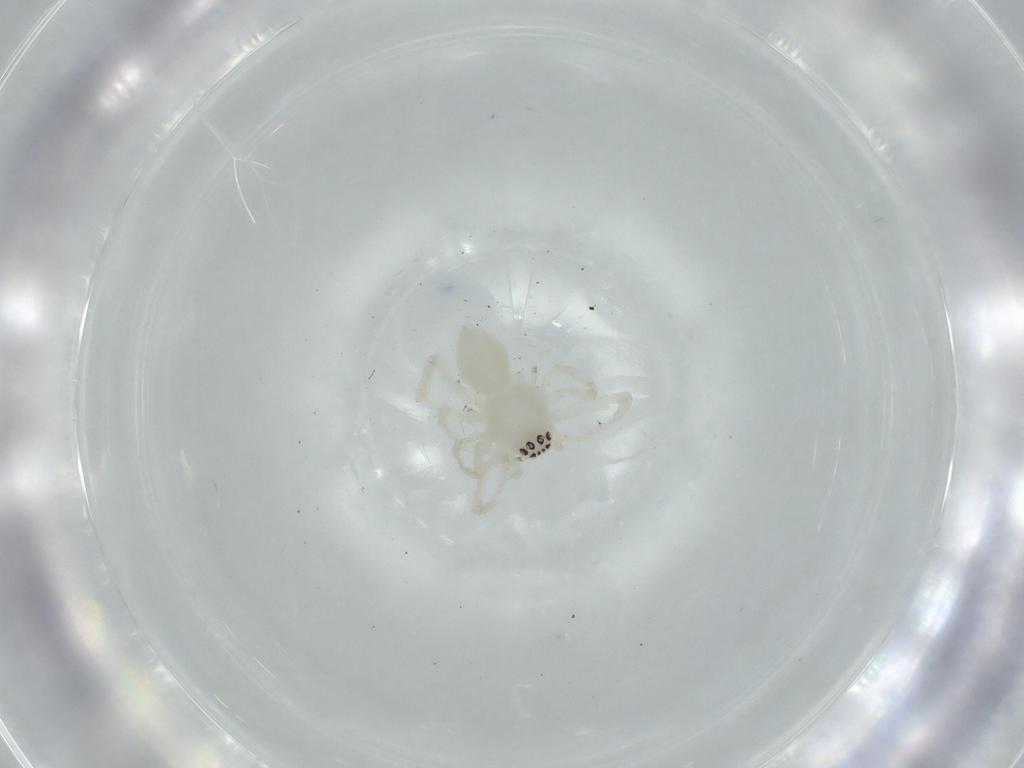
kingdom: Animalia
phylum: Arthropoda
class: Arachnida
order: Araneae
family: Anyphaenidae
